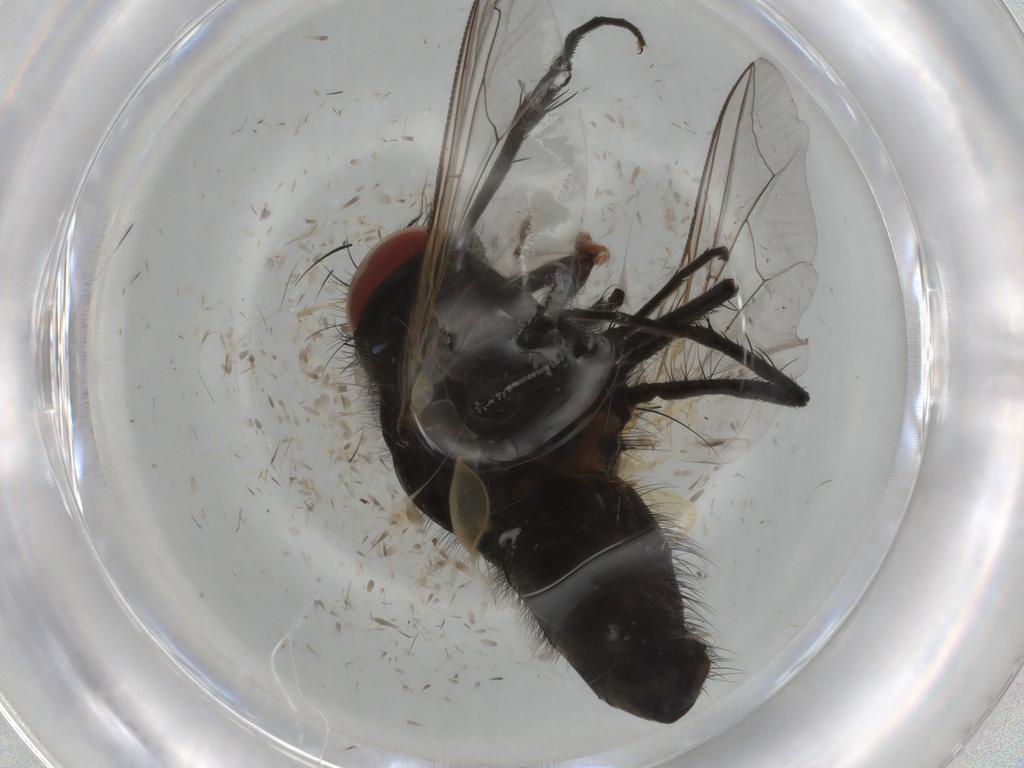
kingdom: Animalia
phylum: Arthropoda
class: Insecta
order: Diptera
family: Sarcophagidae
